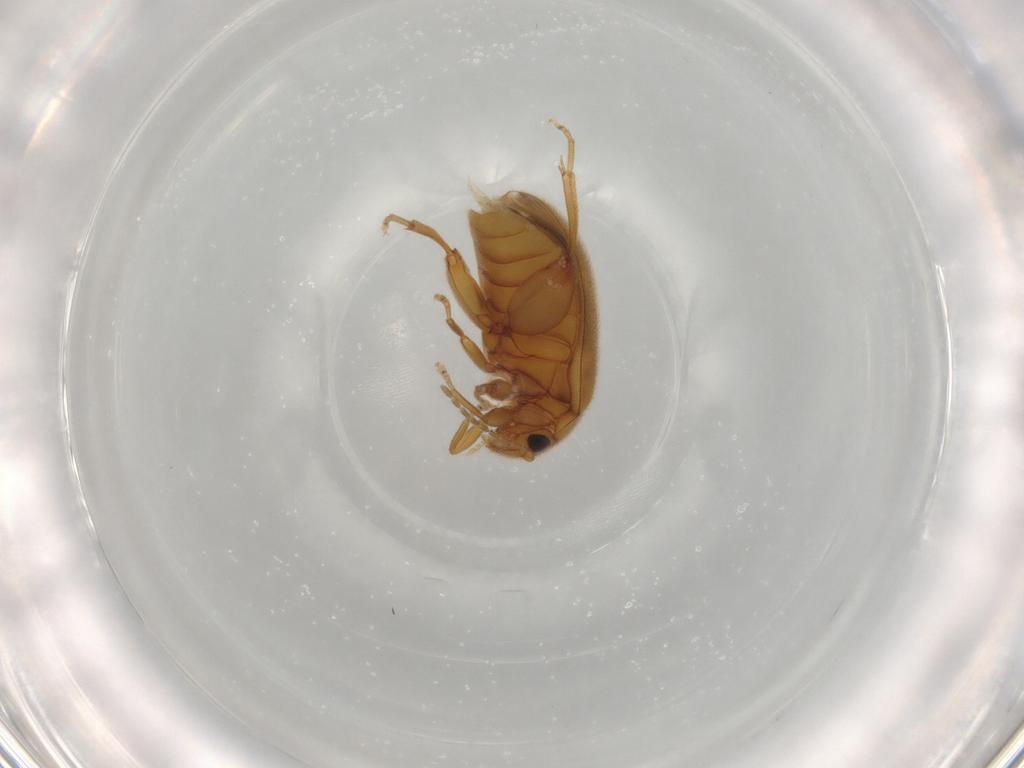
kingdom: Animalia
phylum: Arthropoda
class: Insecta
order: Coleoptera
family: Scirtidae
